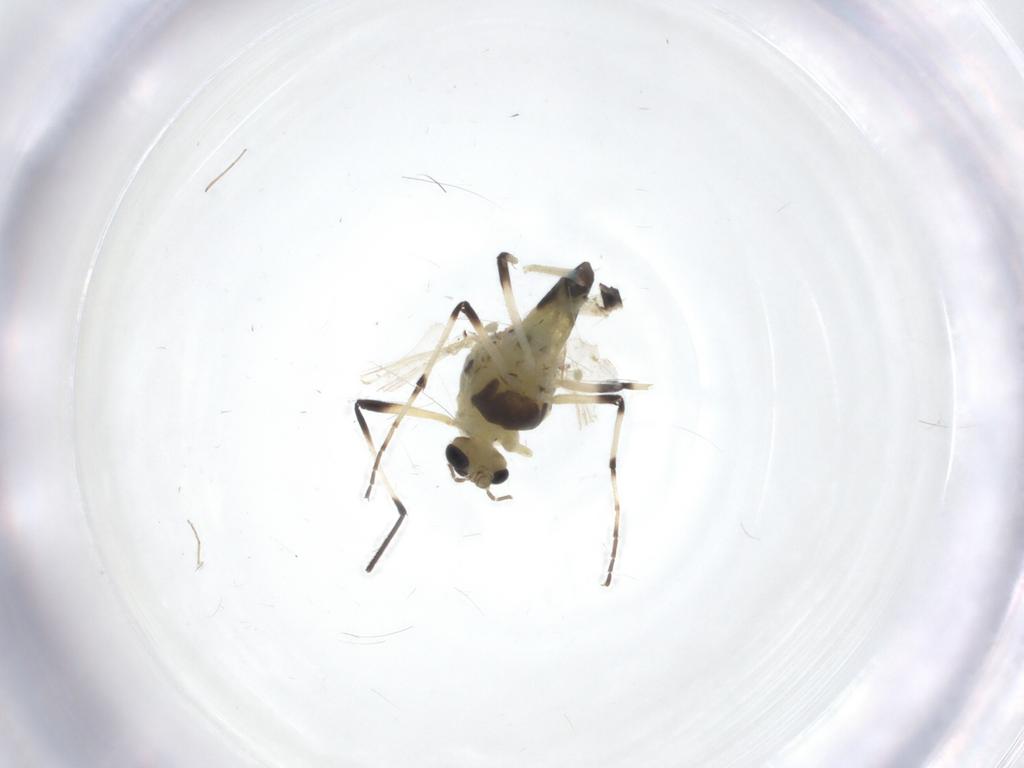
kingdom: Animalia
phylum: Arthropoda
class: Insecta
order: Diptera
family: Chironomidae
